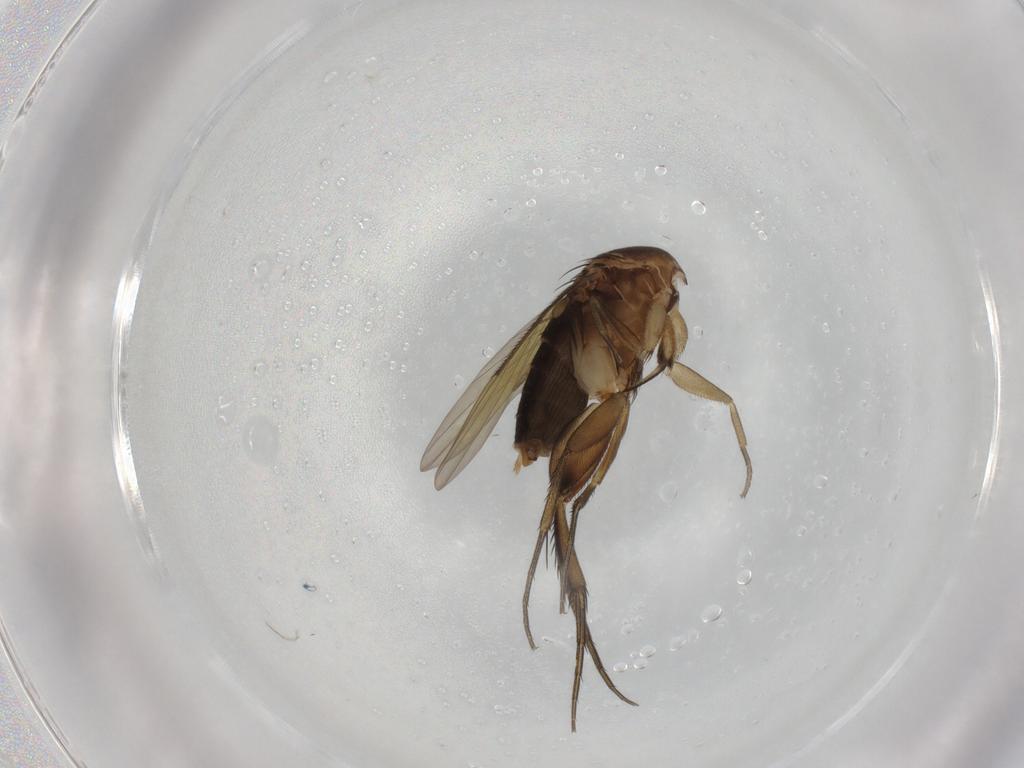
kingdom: Animalia
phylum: Arthropoda
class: Insecta
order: Diptera
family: Phoridae
